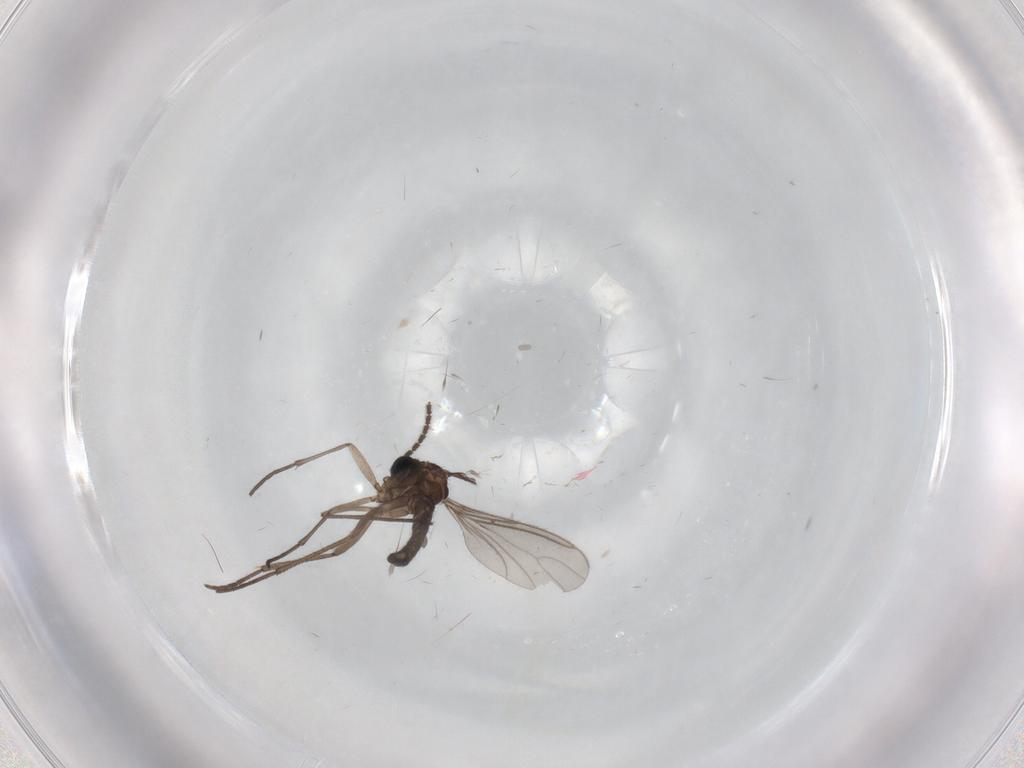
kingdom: Animalia
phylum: Arthropoda
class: Insecta
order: Diptera
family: Sciaridae
